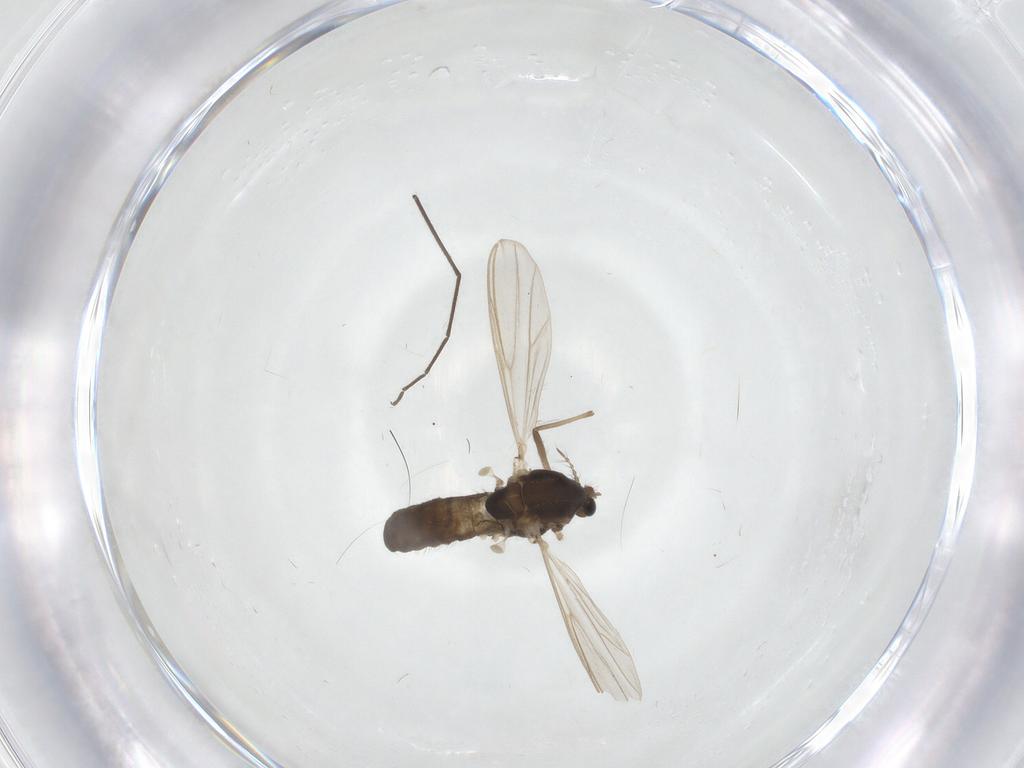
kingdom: Animalia
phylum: Arthropoda
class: Insecta
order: Diptera
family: Chironomidae
